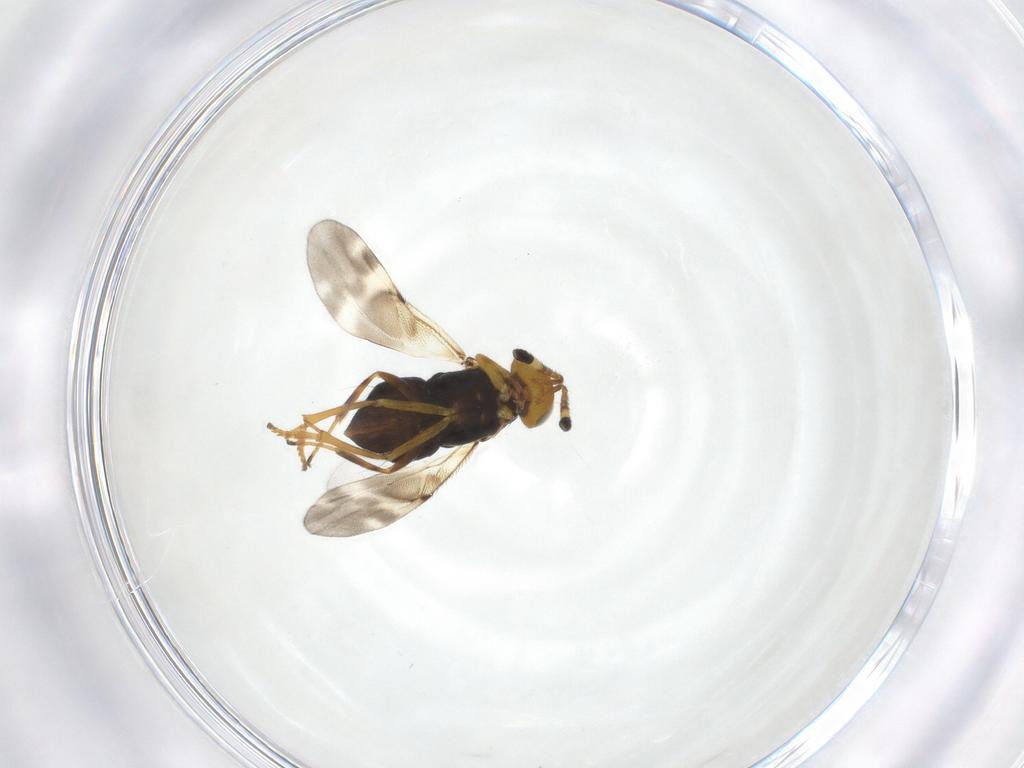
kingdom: Animalia
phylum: Arthropoda
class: Insecta
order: Hymenoptera
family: Encyrtidae
